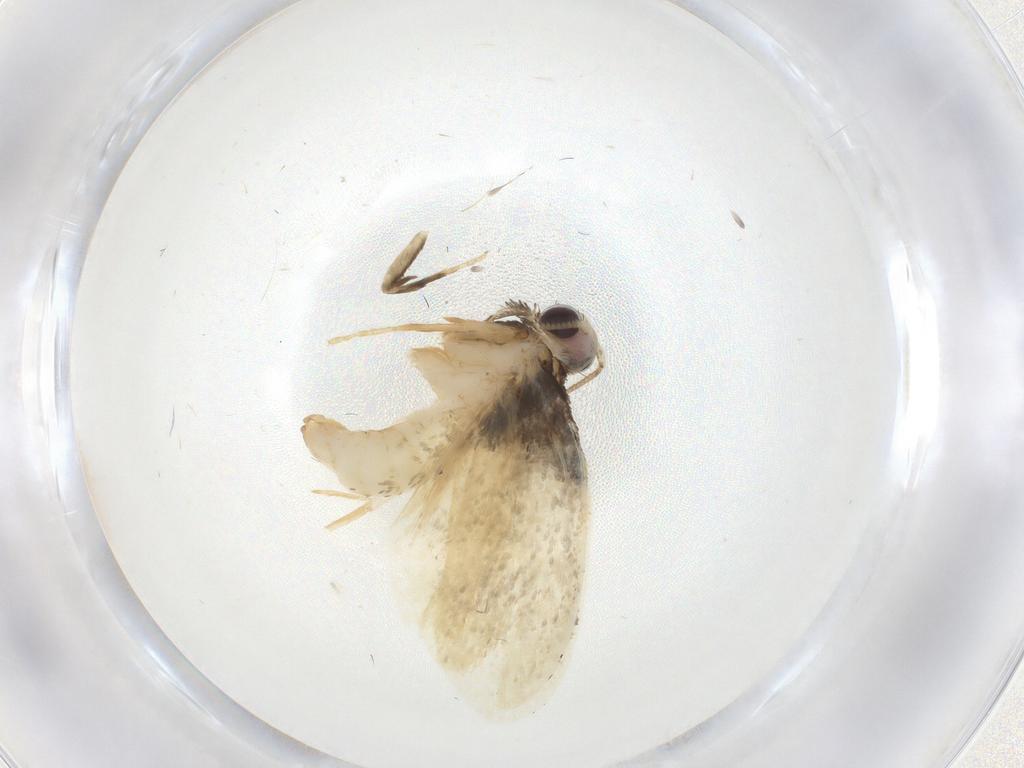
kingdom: Animalia
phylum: Arthropoda
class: Insecta
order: Lepidoptera
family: Psychidae
